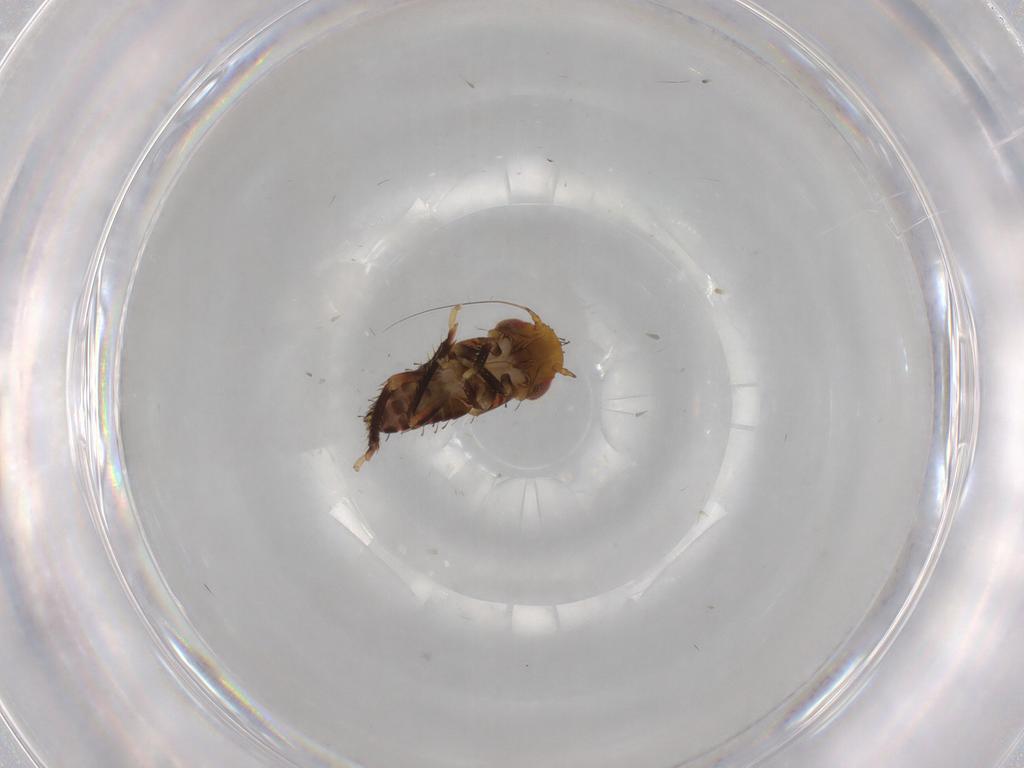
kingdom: Animalia
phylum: Arthropoda
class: Insecta
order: Hemiptera
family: Cicadellidae
